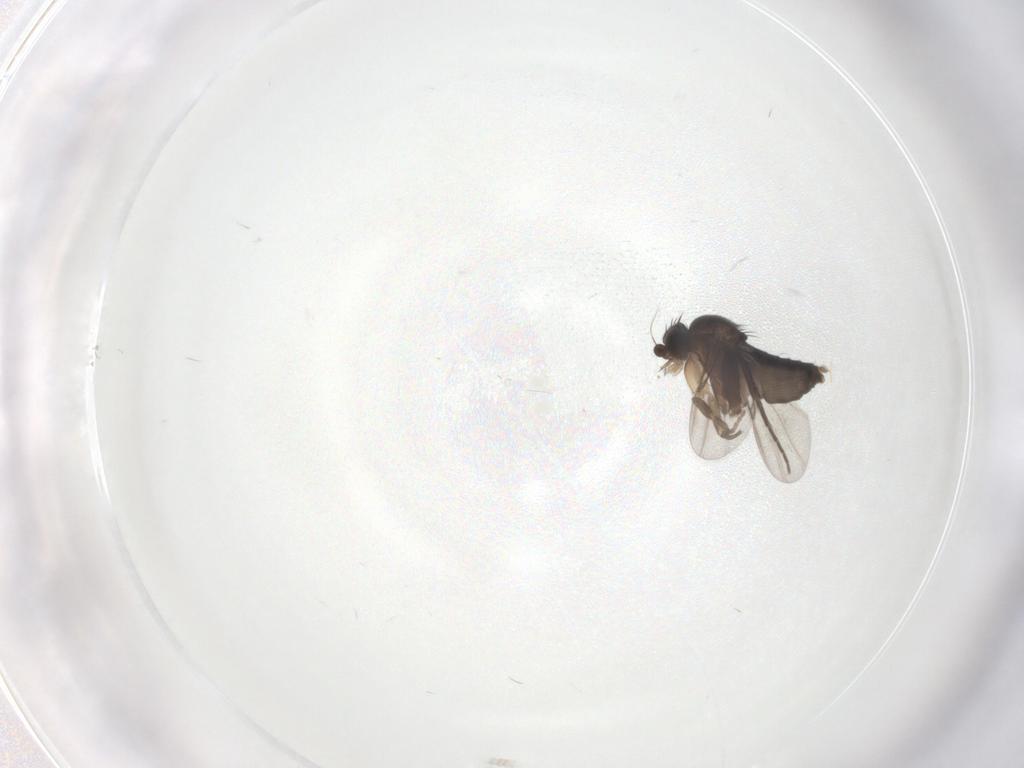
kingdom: Animalia
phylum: Arthropoda
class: Insecta
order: Diptera
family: Phoridae
